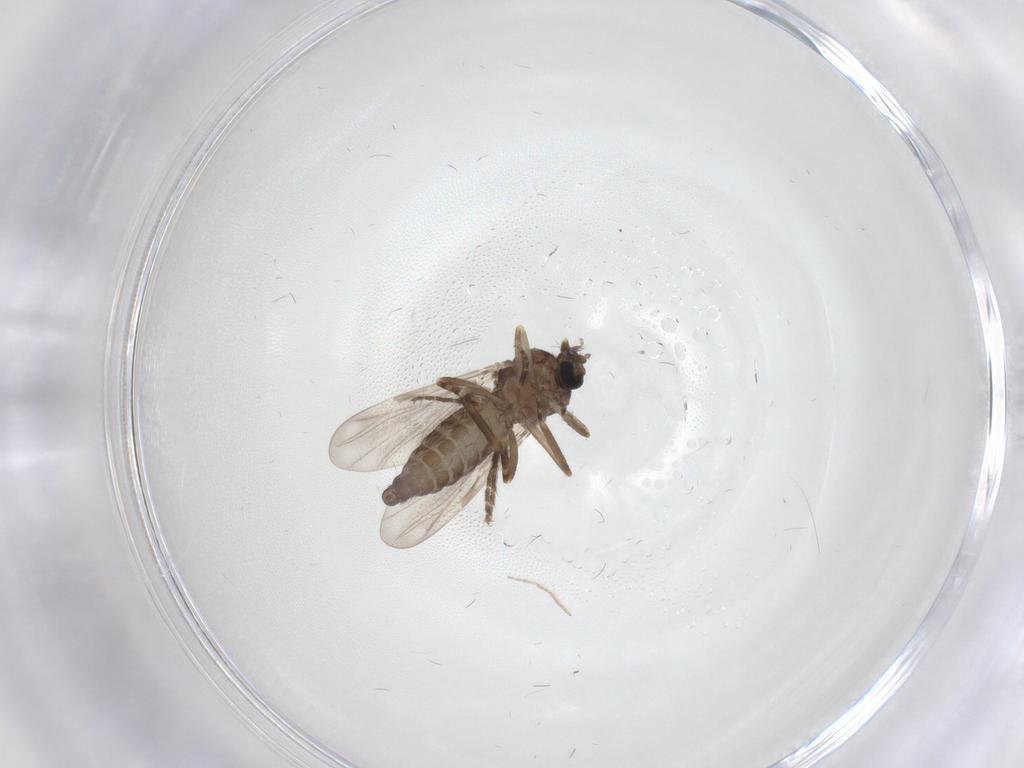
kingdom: Animalia
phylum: Arthropoda
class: Insecta
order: Diptera
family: Ceratopogonidae
